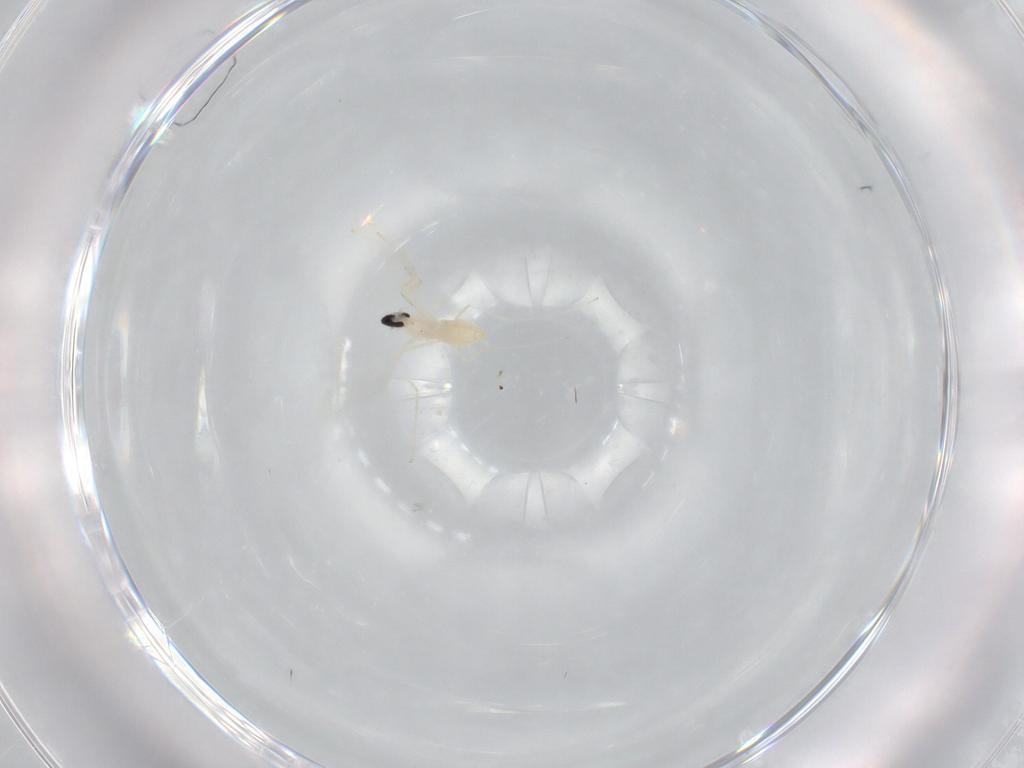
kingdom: Animalia
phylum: Arthropoda
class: Insecta
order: Diptera
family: Cecidomyiidae
